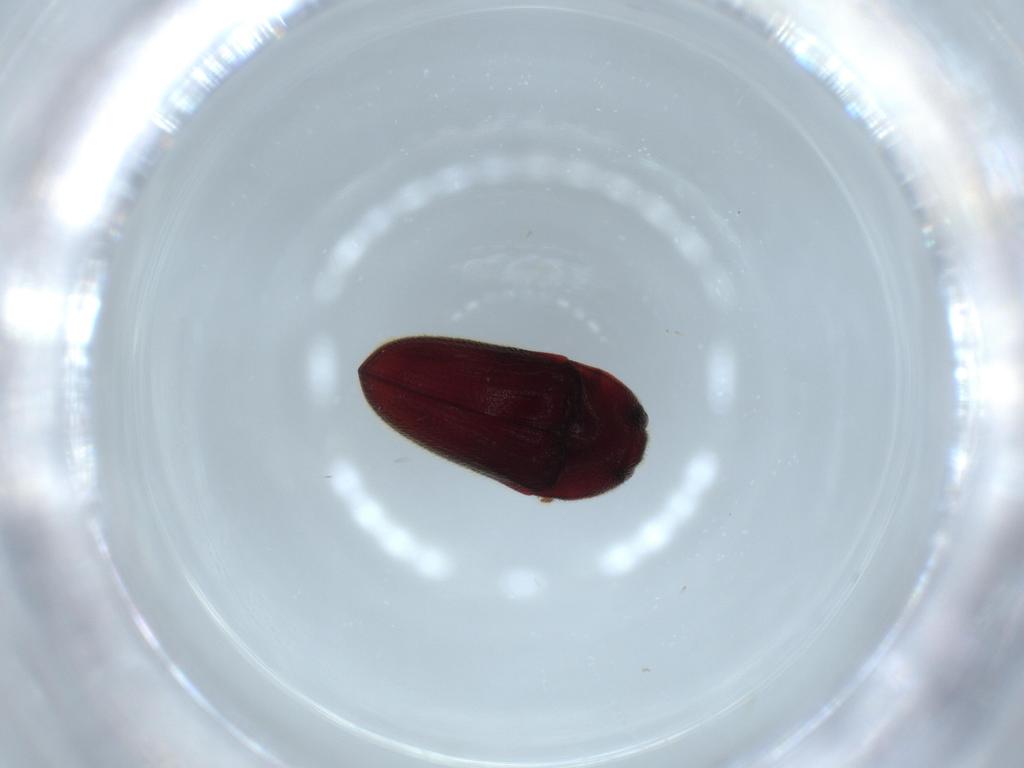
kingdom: Animalia
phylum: Arthropoda
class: Insecta
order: Coleoptera
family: Throscidae
